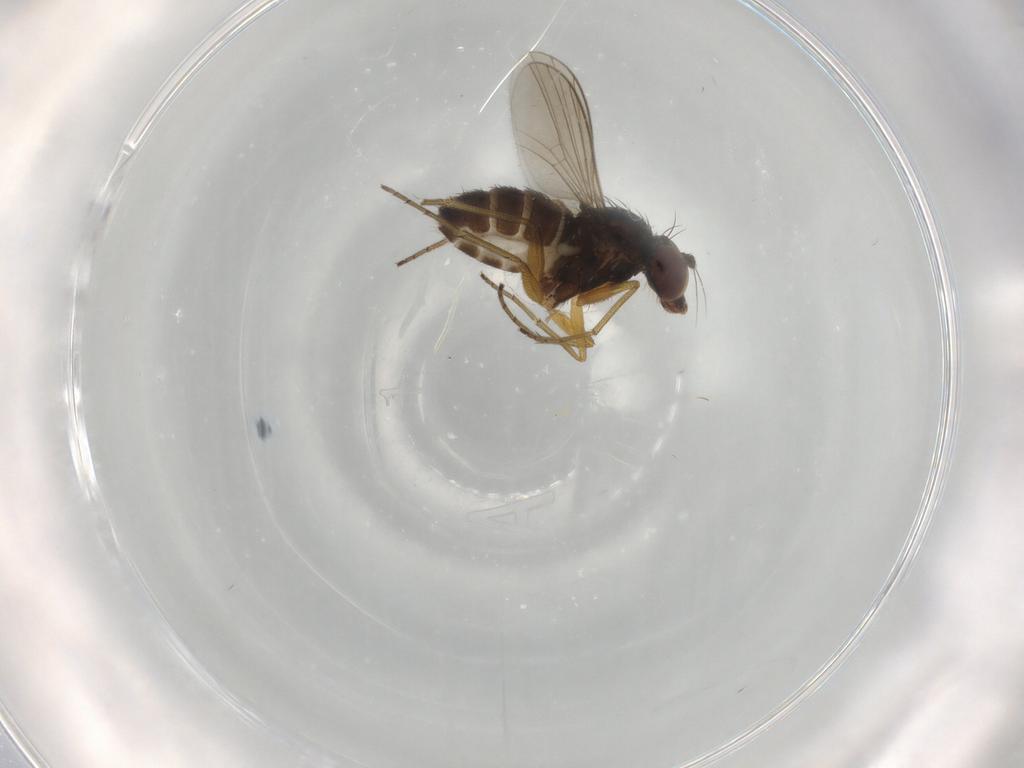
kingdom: Animalia
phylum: Arthropoda
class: Insecta
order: Diptera
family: Dolichopodidae
